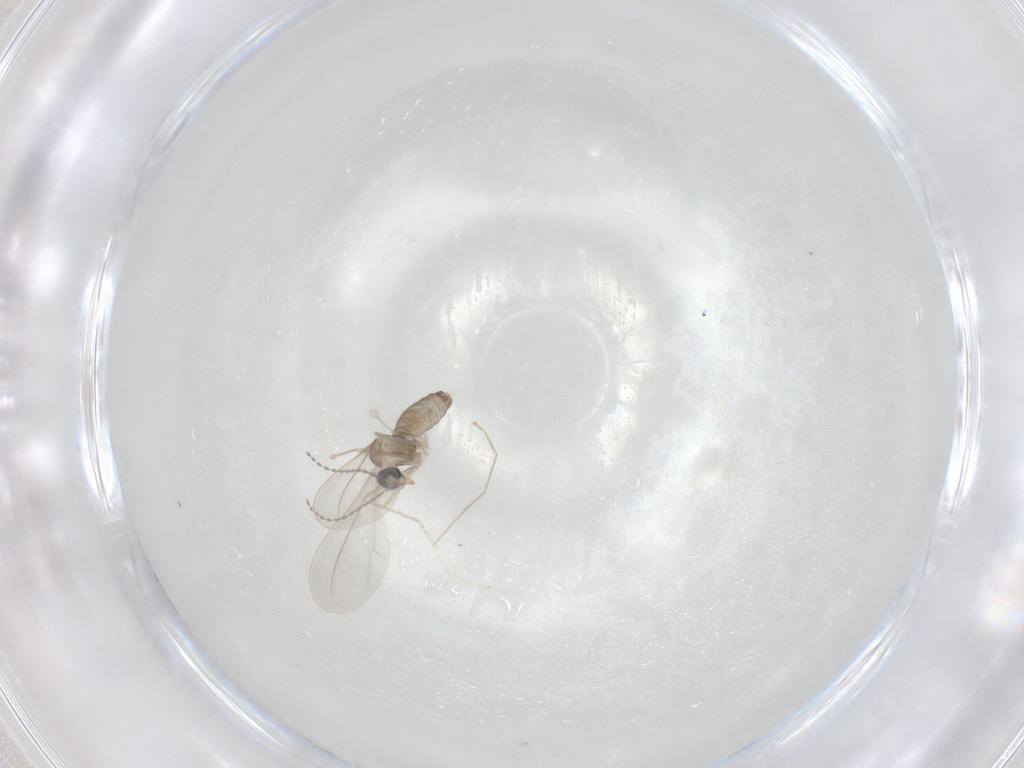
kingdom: Animalia
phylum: Arthropoda
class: Insecta
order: Diptera
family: Cecidomyiidae
